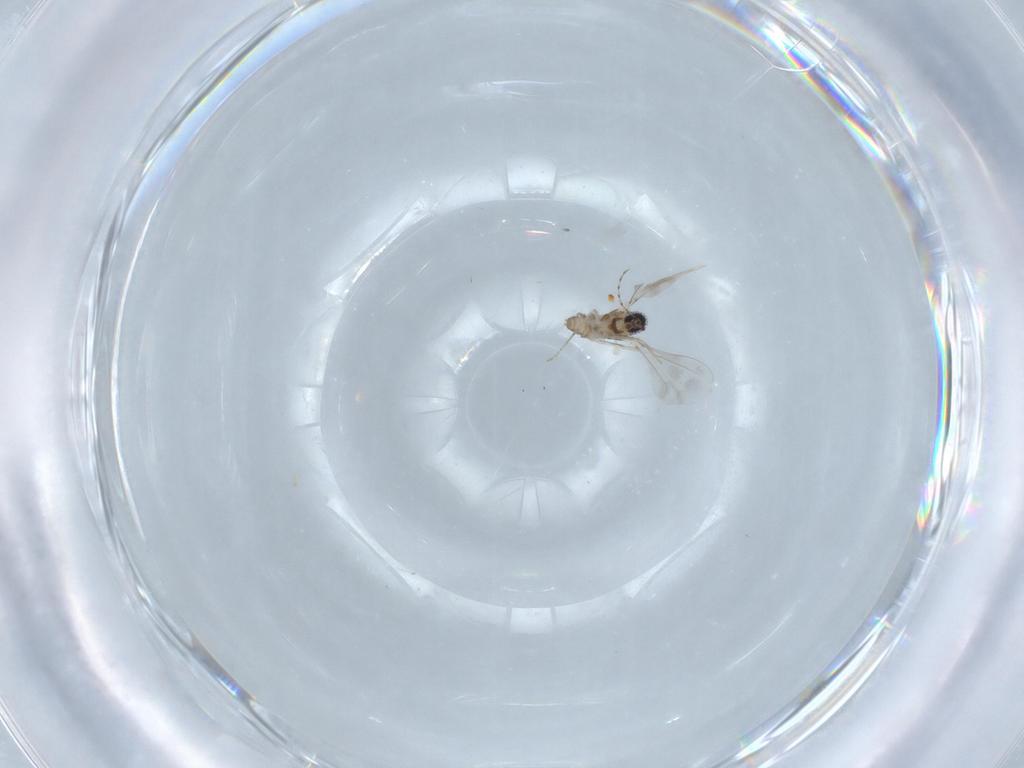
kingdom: Animalia
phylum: Arthropoda
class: Insecta
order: Diptera
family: Cecidomyiidae
